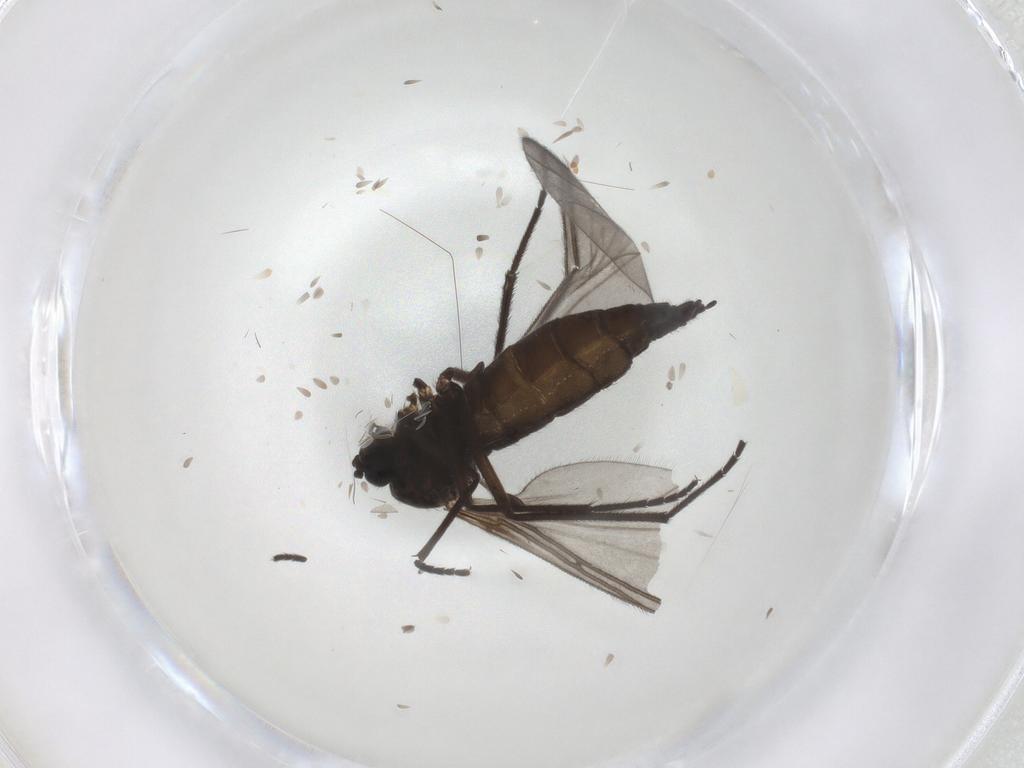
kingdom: Animalia
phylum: Arthropoda
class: Insecta
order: Diptera
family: Sciaridae
